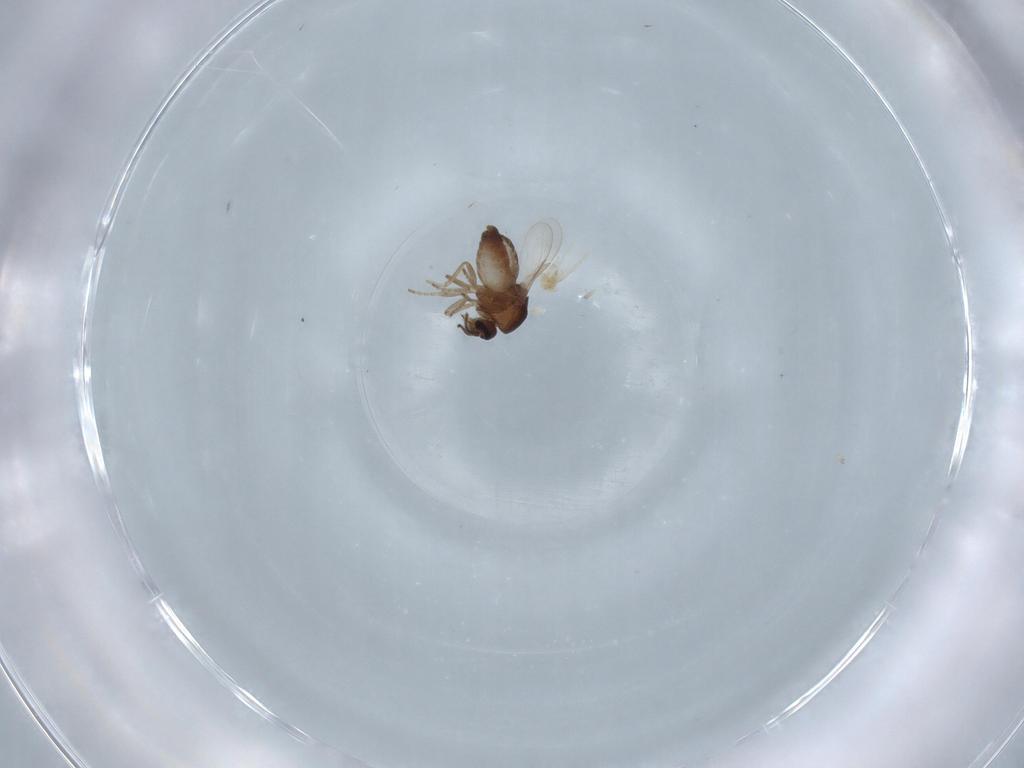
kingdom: Animalia
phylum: Arthropoda
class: Insecta
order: Diptera
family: Ceratopogonidae
